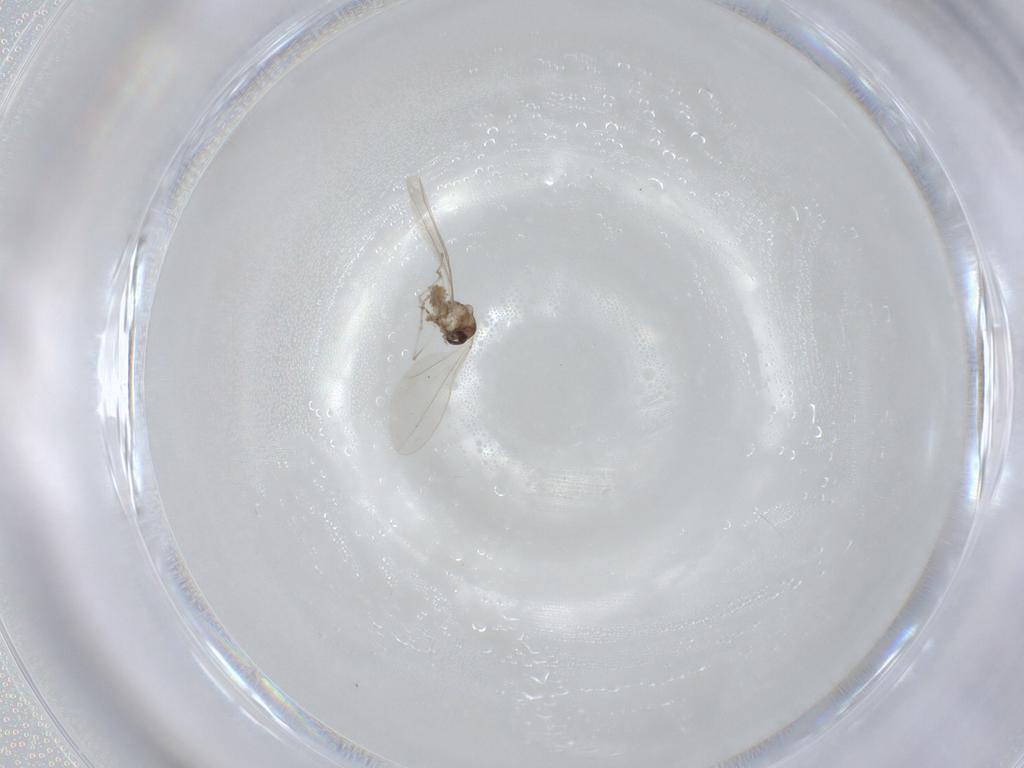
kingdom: Animalia
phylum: Arthropoda
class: Insecta
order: Diptera
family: Cecidomyiidae
